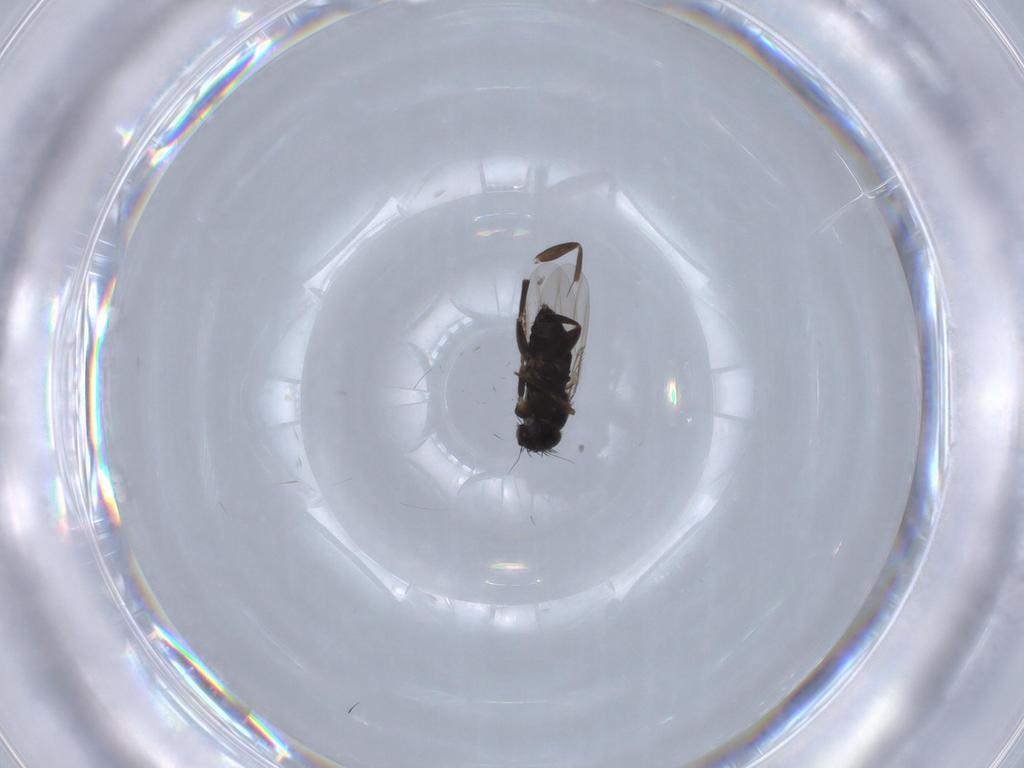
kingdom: Animalia
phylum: Arthropoda
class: Insecta
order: Diptera
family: Phoridae
